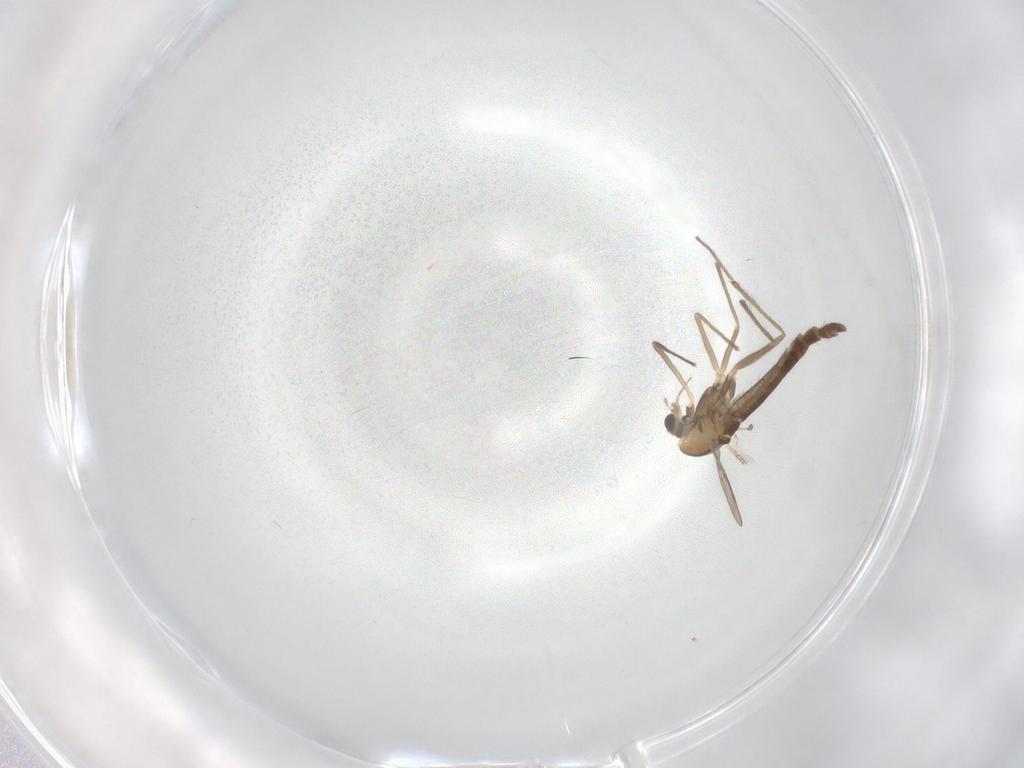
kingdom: Animalia
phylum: Arthropoda
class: Insecta
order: Diptera
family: Chironomidae
